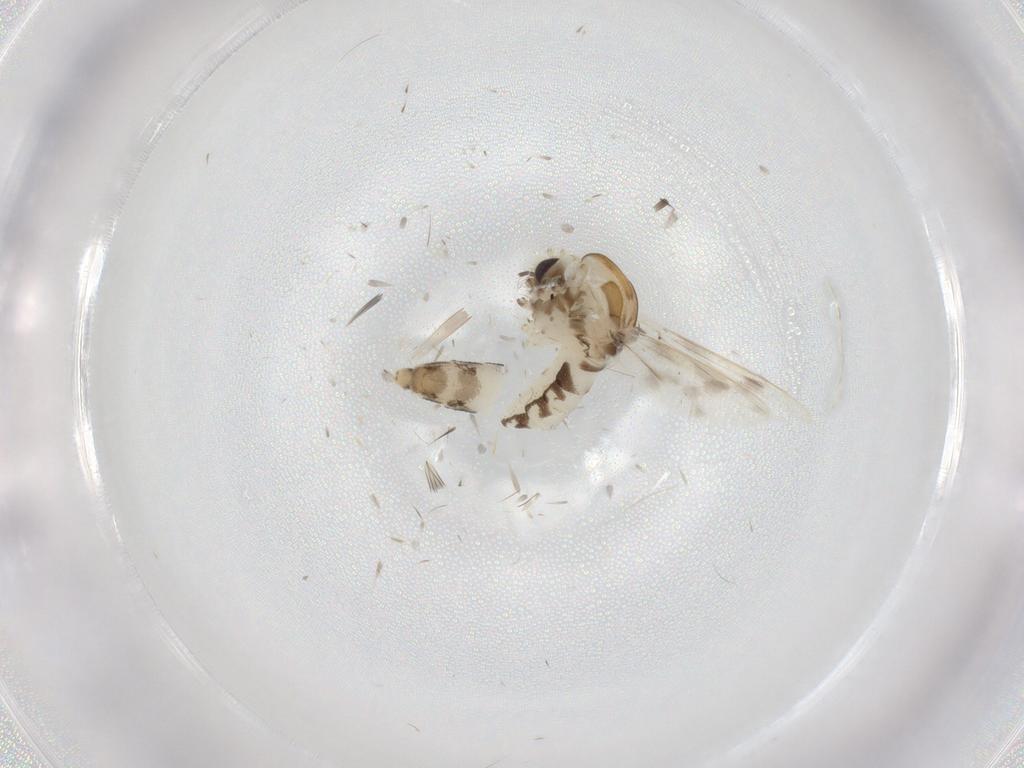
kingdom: Animalia
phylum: Arthropoda
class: Insecta
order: Diptera
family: Corethrellidae
